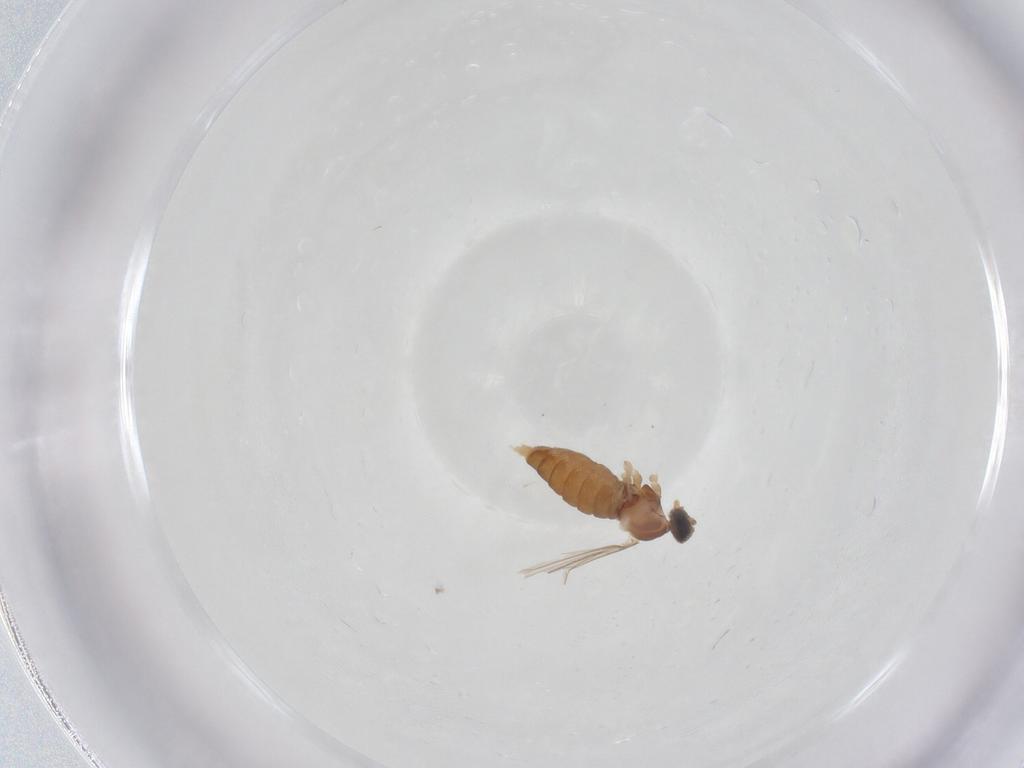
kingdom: Animalia
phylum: Arthropoda
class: Insecta
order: Diptera
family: Cecidomyiidae
